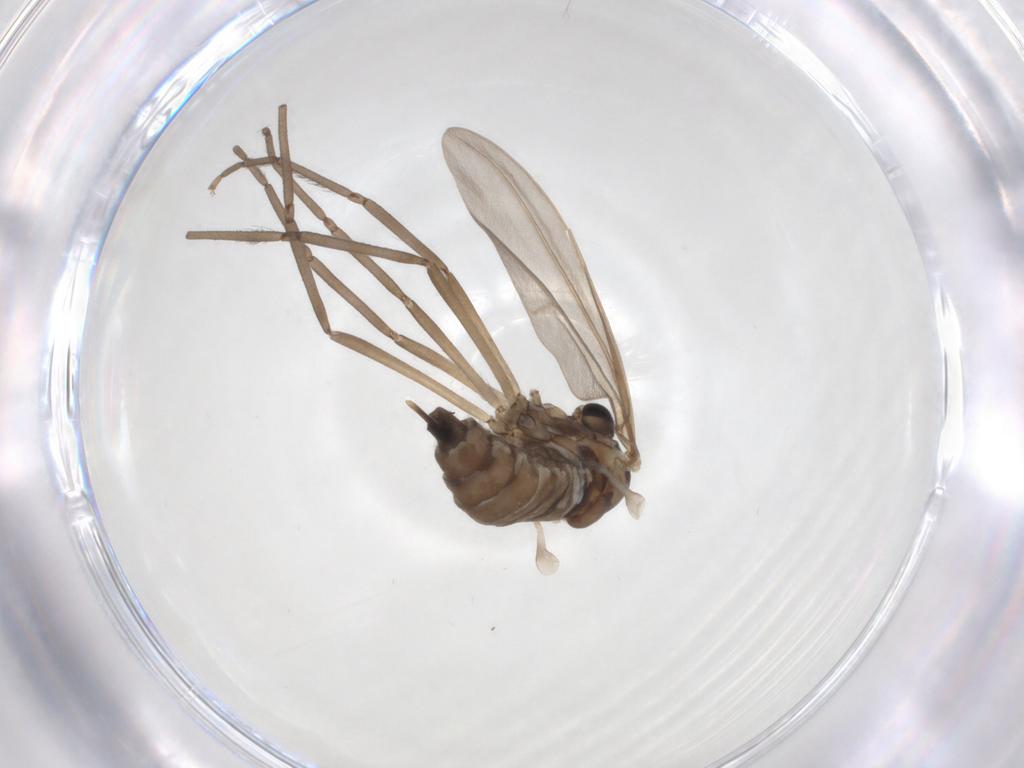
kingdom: Animalia
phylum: Arthropoda
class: Insecta
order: Diptera
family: Cecidomyiidae
